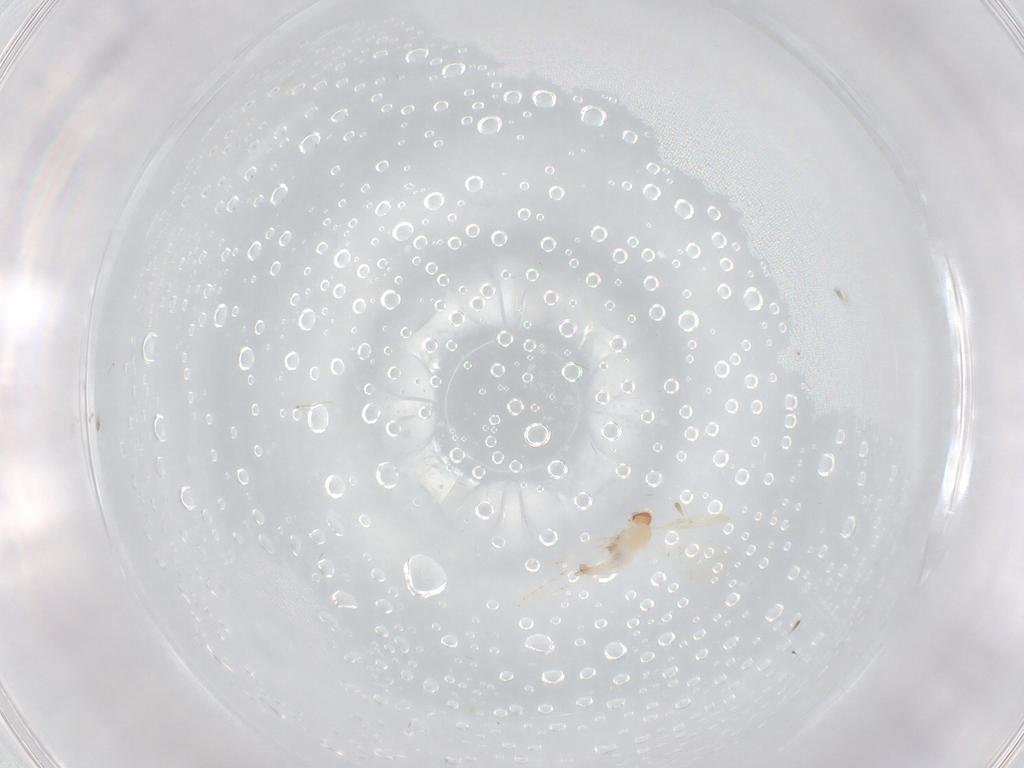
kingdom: Animalia
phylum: Arthropoda
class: Insecta
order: Diptera
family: Cecidomyiidae
